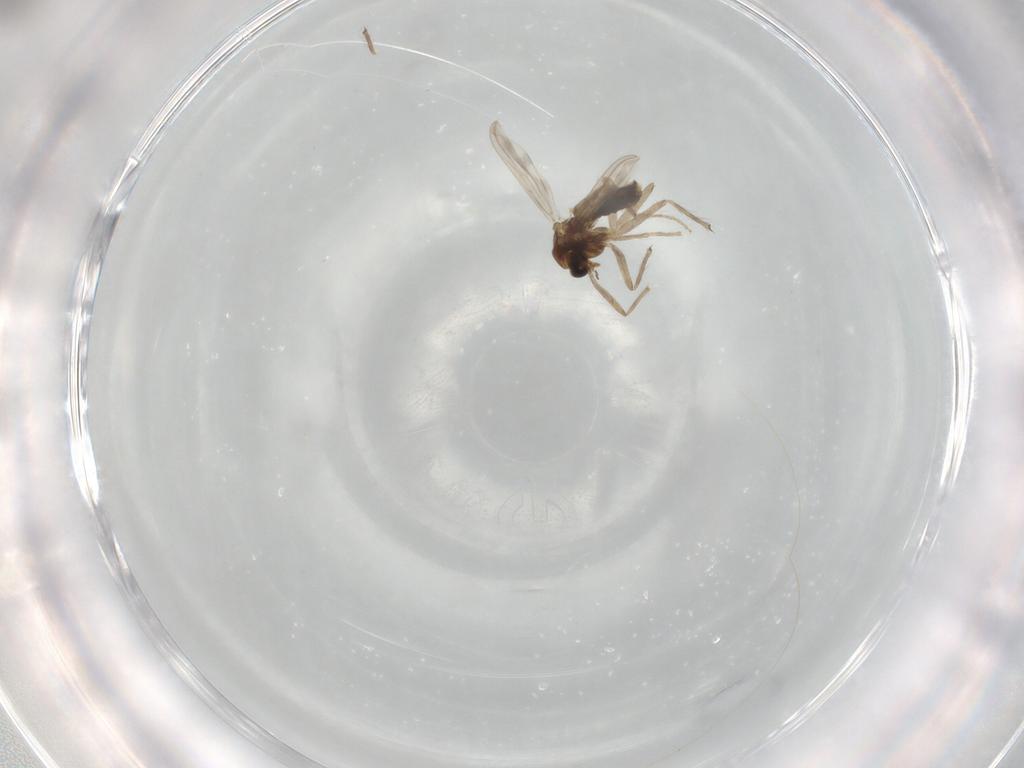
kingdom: Animalia
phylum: Arthropoda
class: Insecta
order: Diptera
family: Chironomidae
